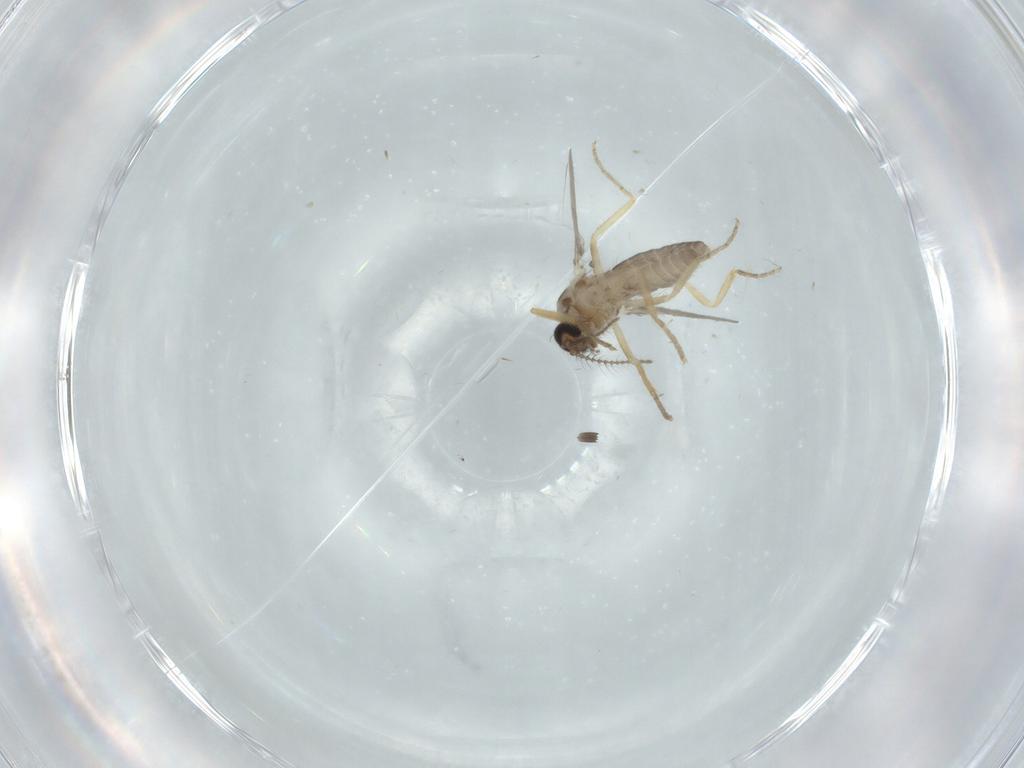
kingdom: Animalia
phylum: Arthropoda
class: Insecta
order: Diptera
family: Ceratopogonidae
